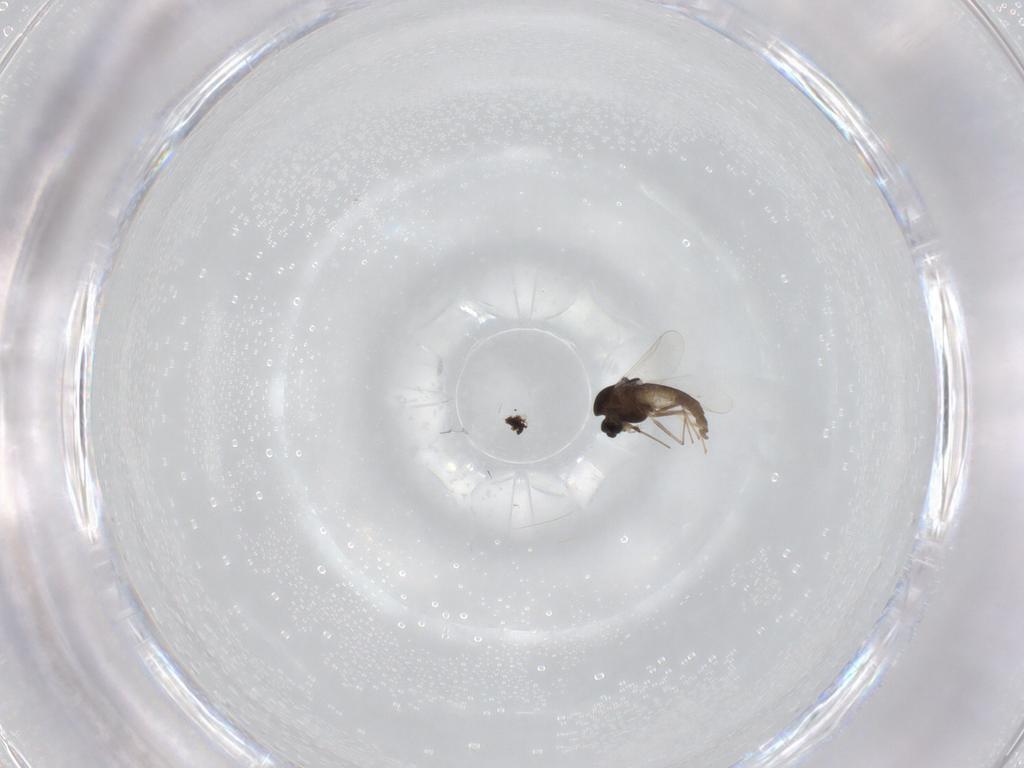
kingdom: Animalia
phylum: Arthropoda
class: Insecta
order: Diptera
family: Chironomidae
